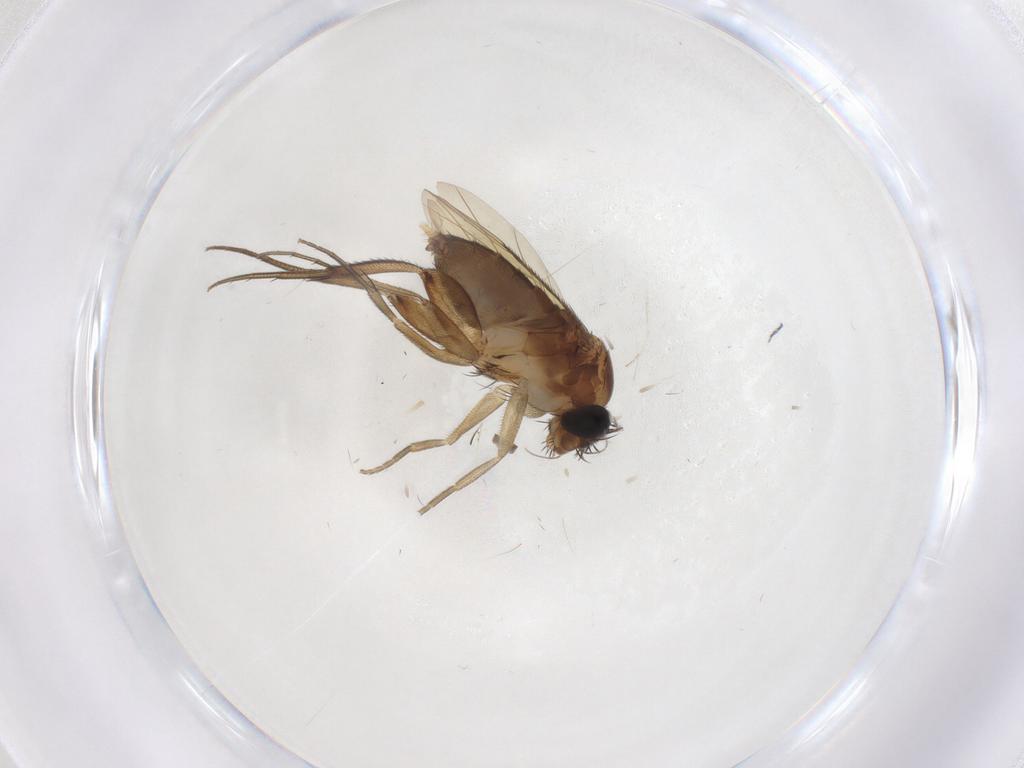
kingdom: Animalia
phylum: Arthropoda
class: Insecta
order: Diptera
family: Phoridae
